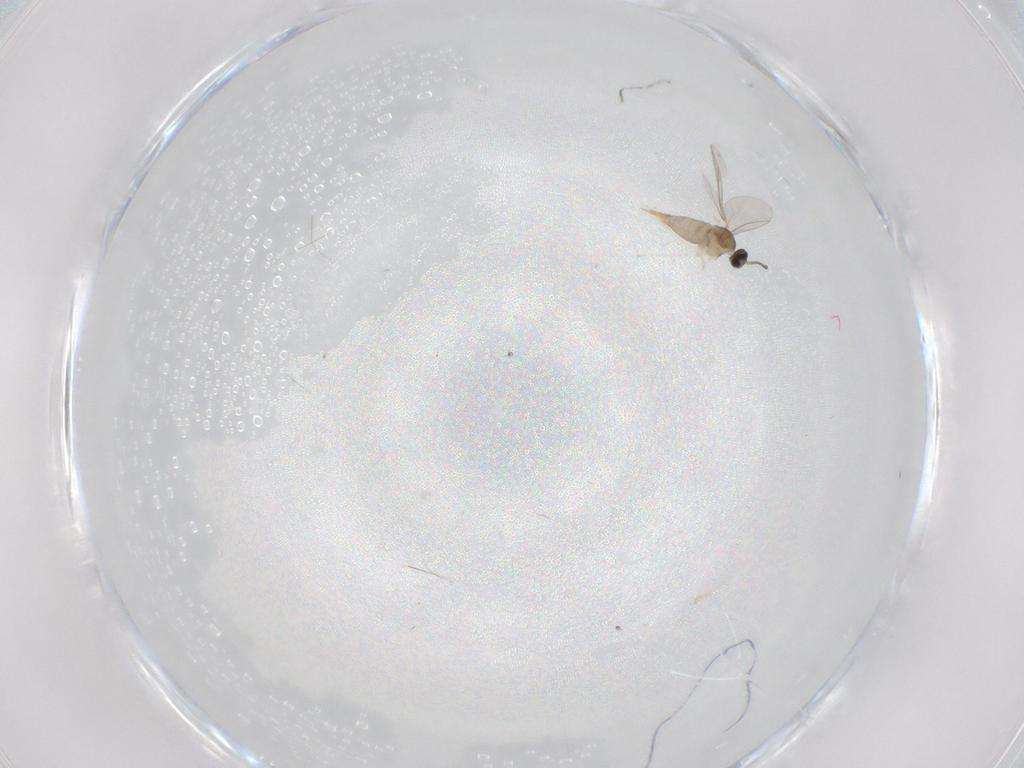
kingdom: Animalia
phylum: Arthropoda
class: Insecta
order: Diptera
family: Cecidomyiidae
